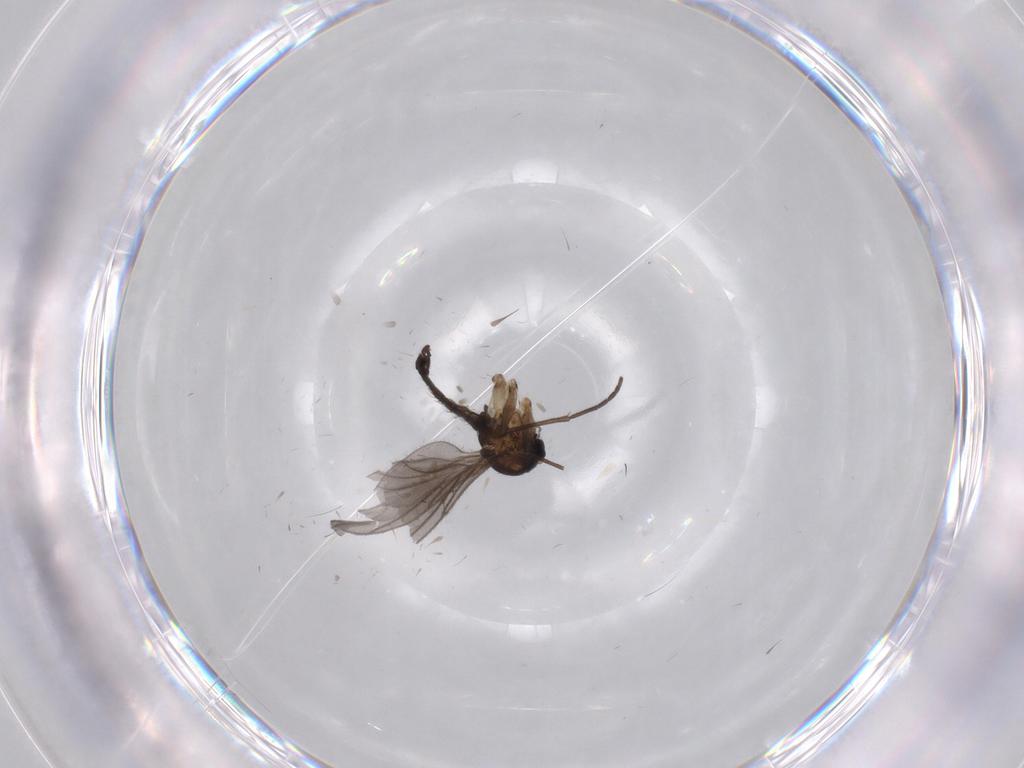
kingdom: Animalia
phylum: Arthropoda
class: Insecta
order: Diptera
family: Sciaridae
